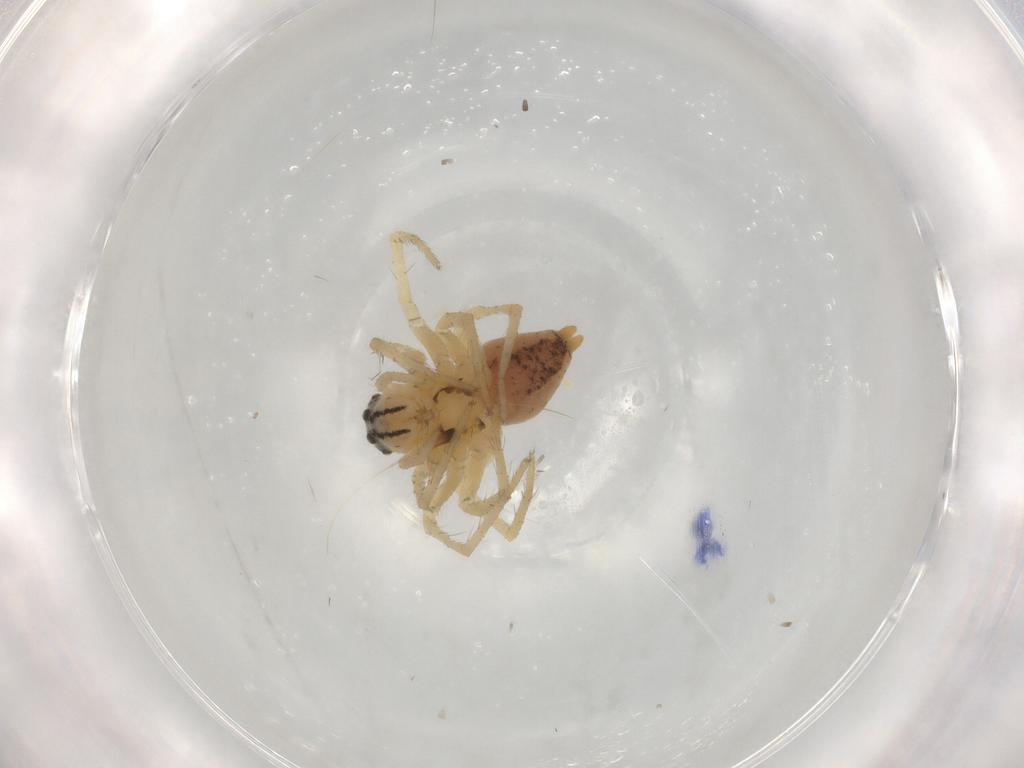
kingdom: Animalia
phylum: Arthropoda
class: Arachnida
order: Araneae
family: Oxyopidae
